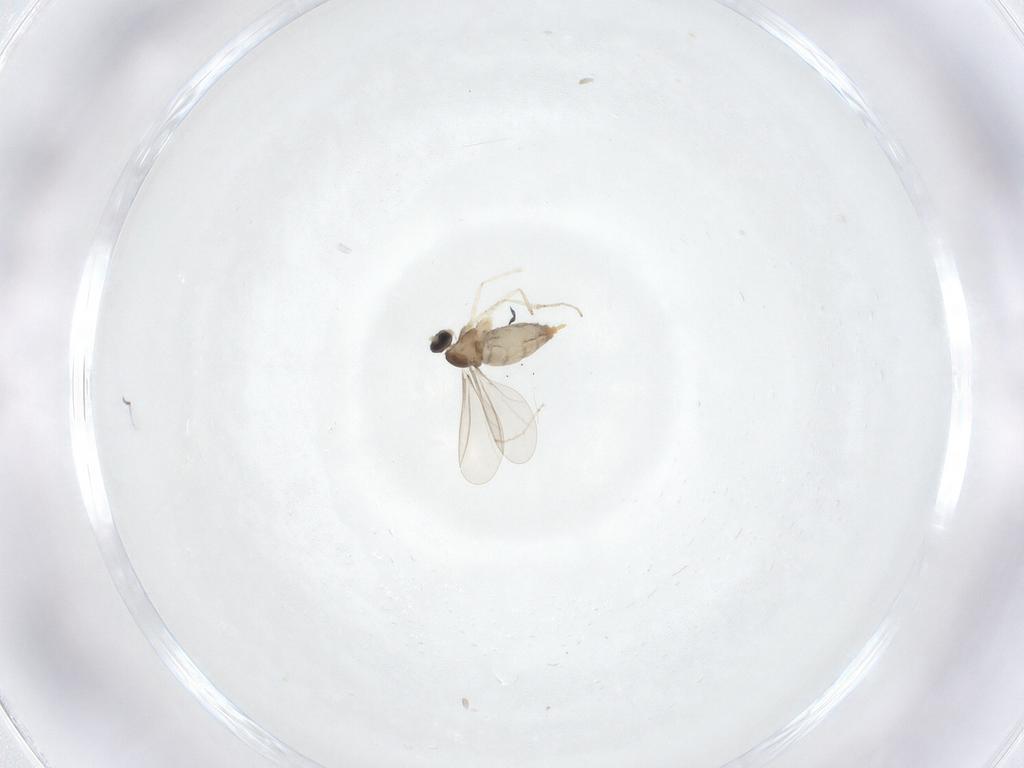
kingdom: Animalia
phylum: Arthropoda
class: Insecta
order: Diptera
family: Cecidomyiidae
